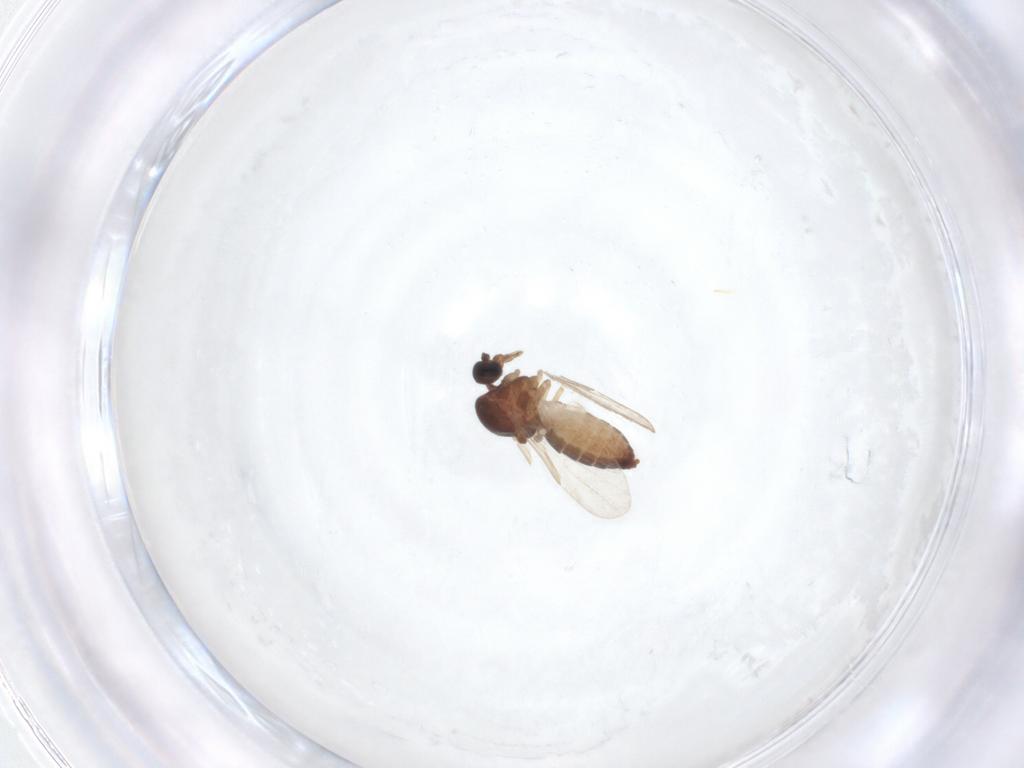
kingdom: Animalia
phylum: Arthropoda
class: Insecta
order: Diptera
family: Ceratopogonidae
